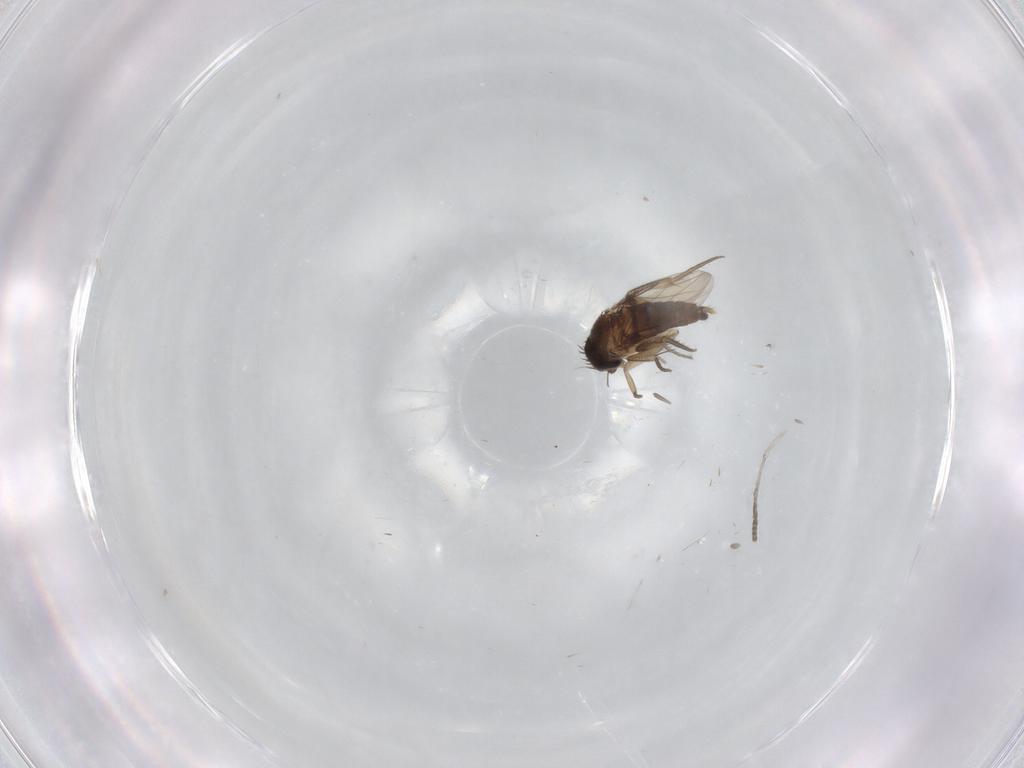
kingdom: Animalia
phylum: Arthropoda
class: Insecta
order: Diptera
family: Phoridae
